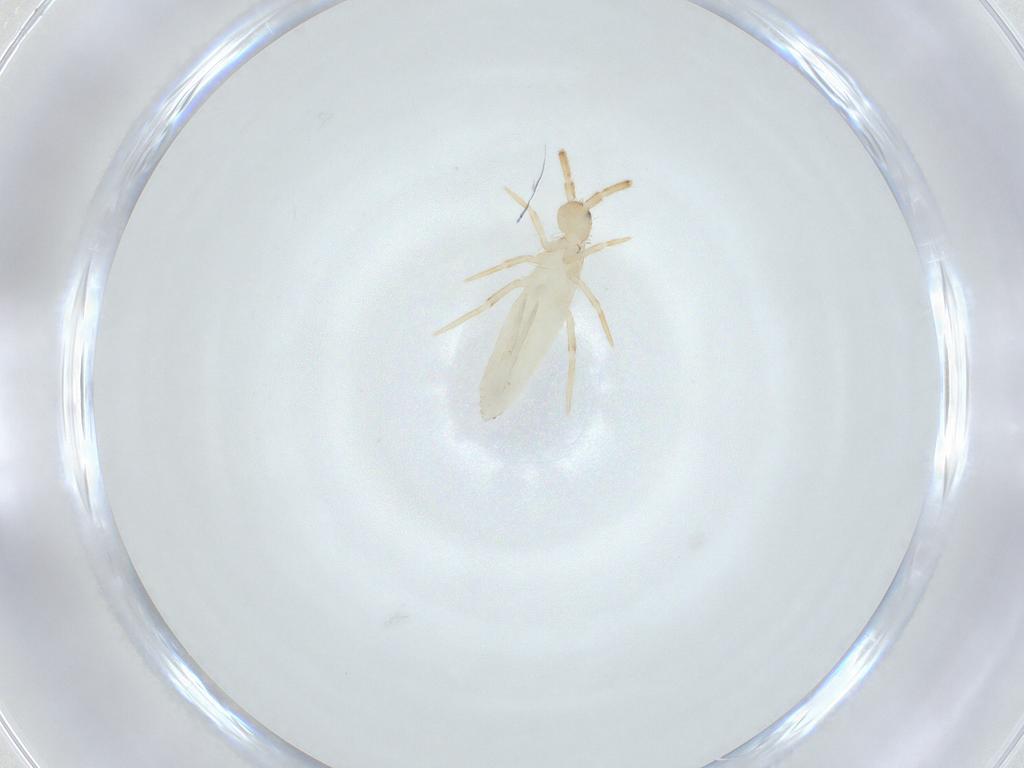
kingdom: Animalia
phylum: Arthropoda
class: Collembola
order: Entomobryomorpha
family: Entomobryidae
